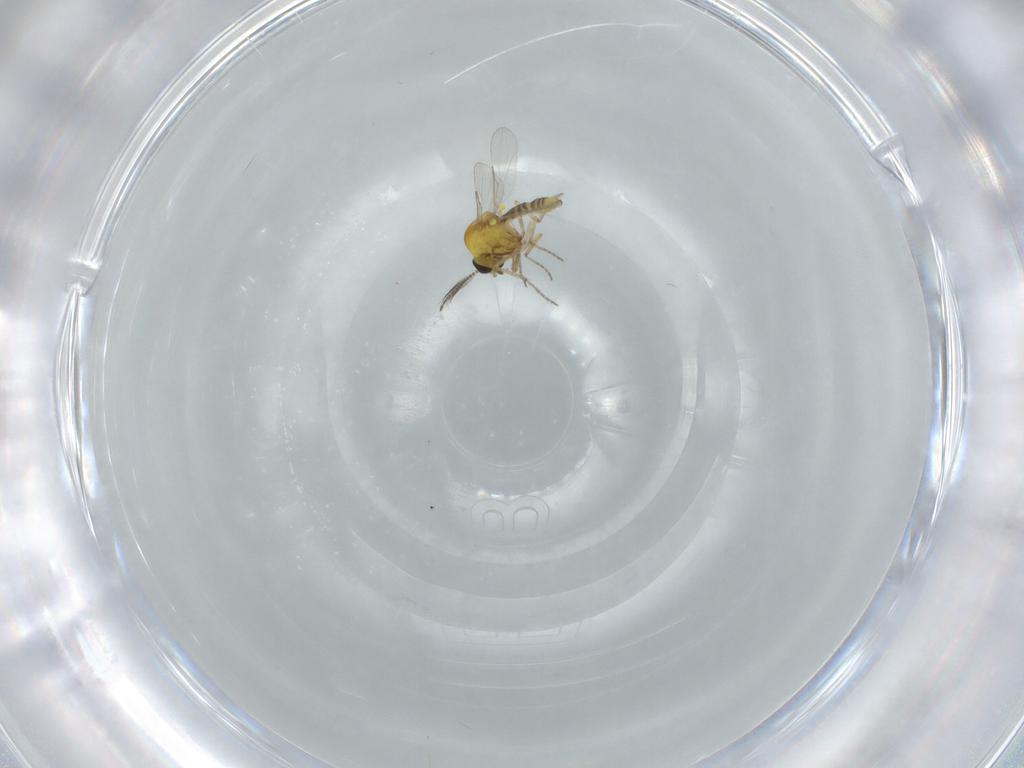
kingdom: Animalia
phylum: Arthropoda
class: Insecta
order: Diptera
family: Ceratopogonidae
